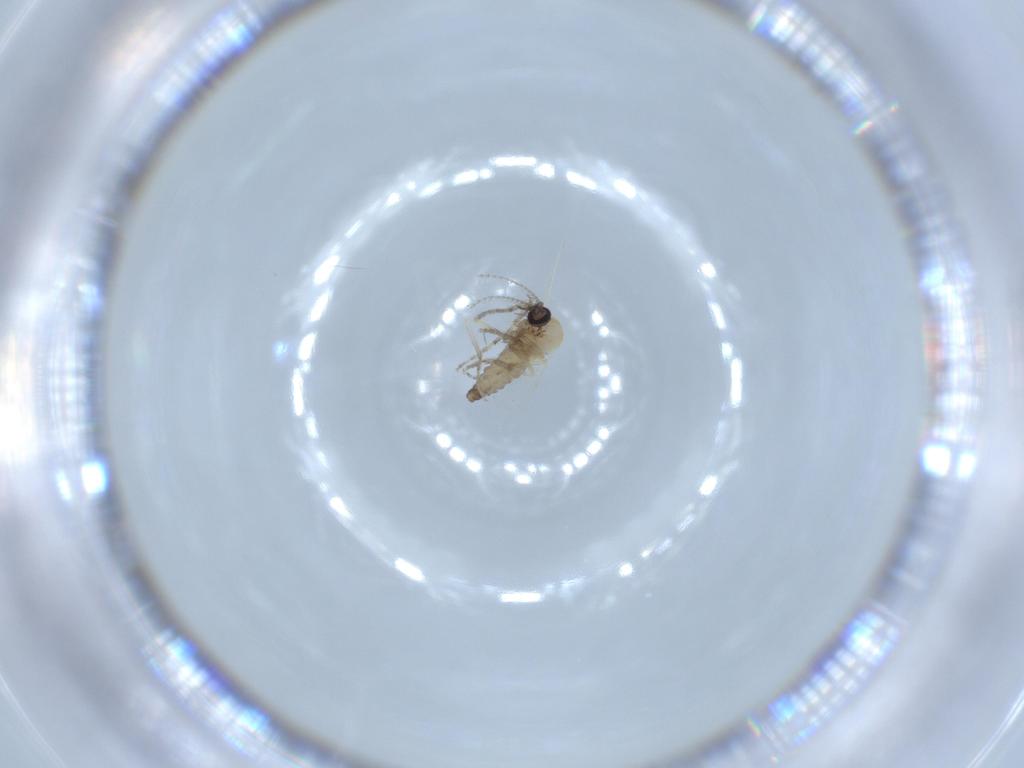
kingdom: Animalia
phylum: Arthropoda
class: Insecta
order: Diptera
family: Ceratopogonidae
